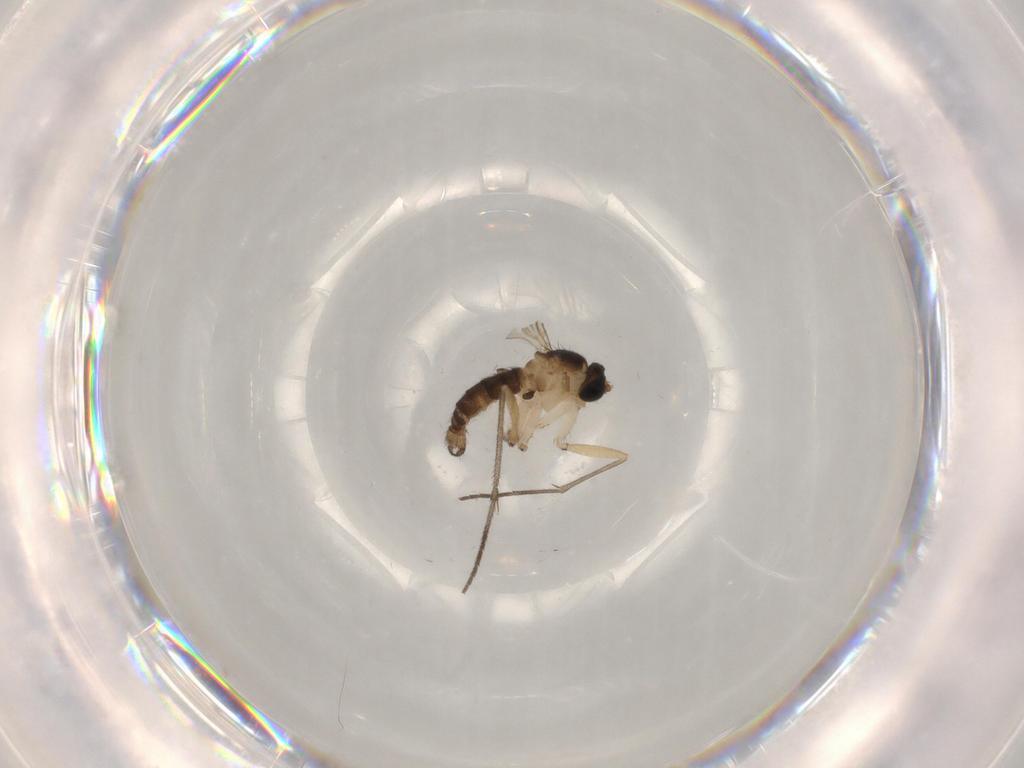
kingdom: Animalia
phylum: Arthropoda
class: Insecta
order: Diptera
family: Sciaridae
